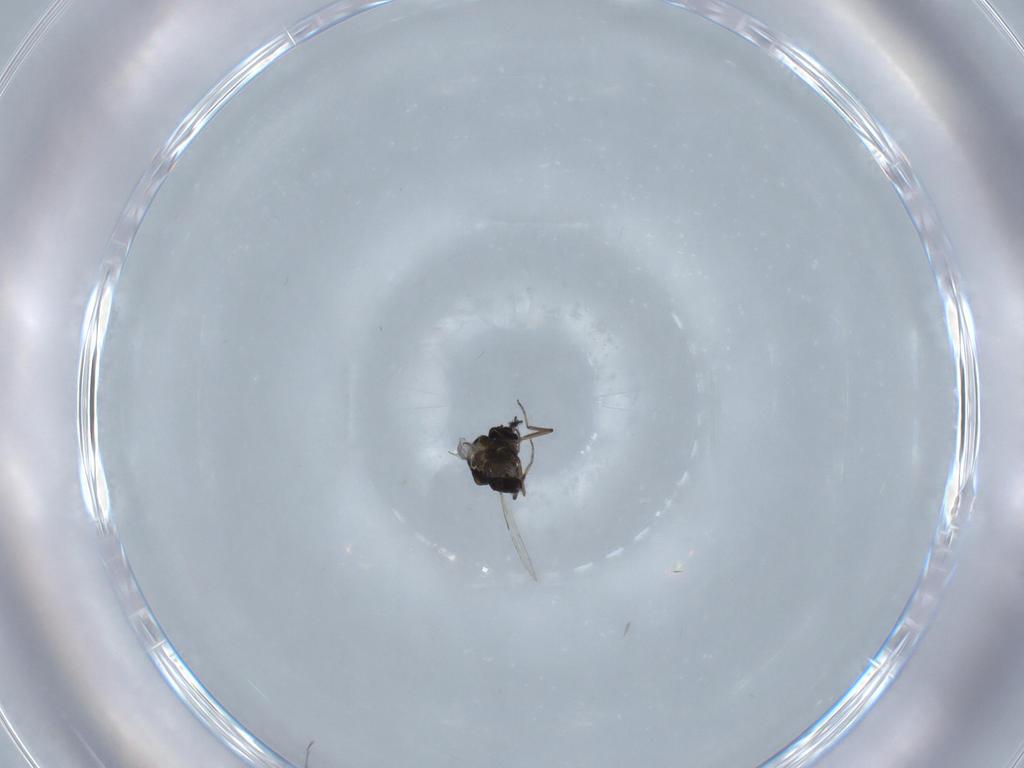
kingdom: Animalia
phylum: Arthropoda
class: Insecta
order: Diptera
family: Ceratopogonidae
